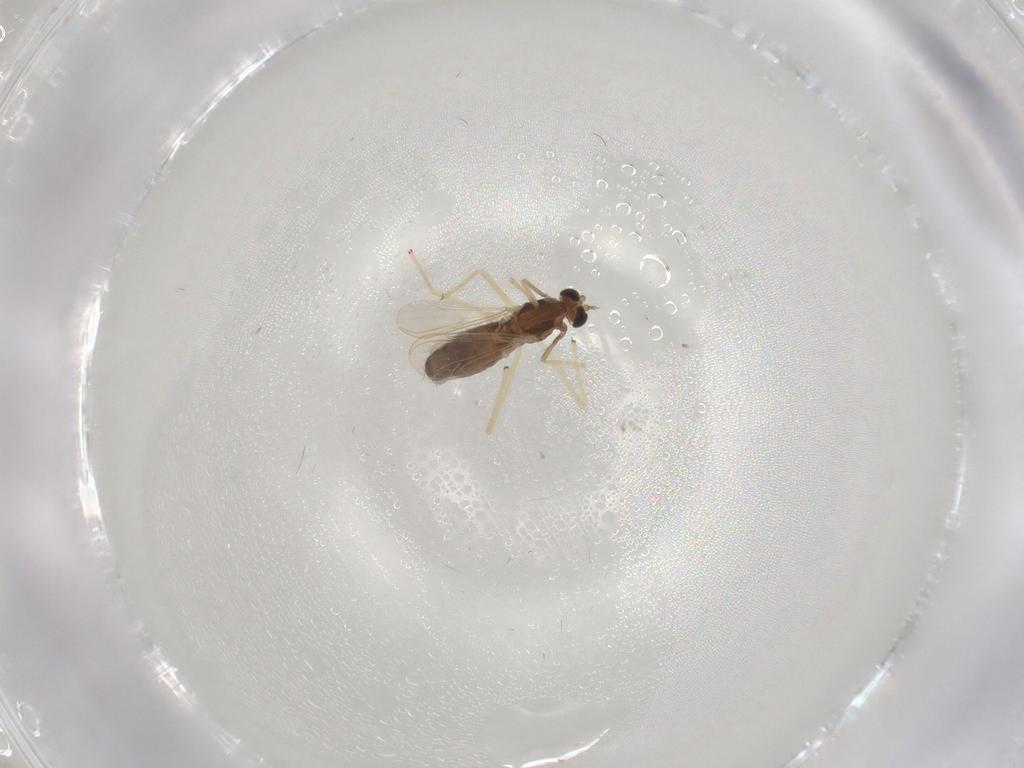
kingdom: Animalia
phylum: Arthropoda
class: Insecta
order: Diptera
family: Chironomidae
